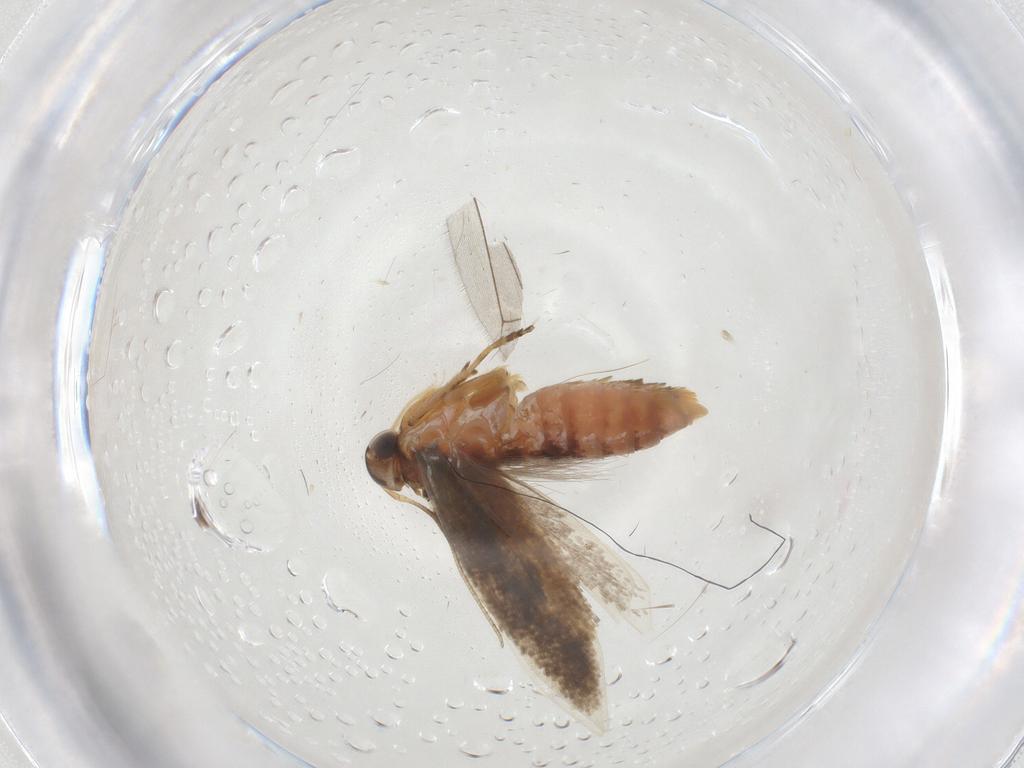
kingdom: Animalia
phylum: Arthropoda
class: Insecta
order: Lepidoptera
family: Gelechiidae
